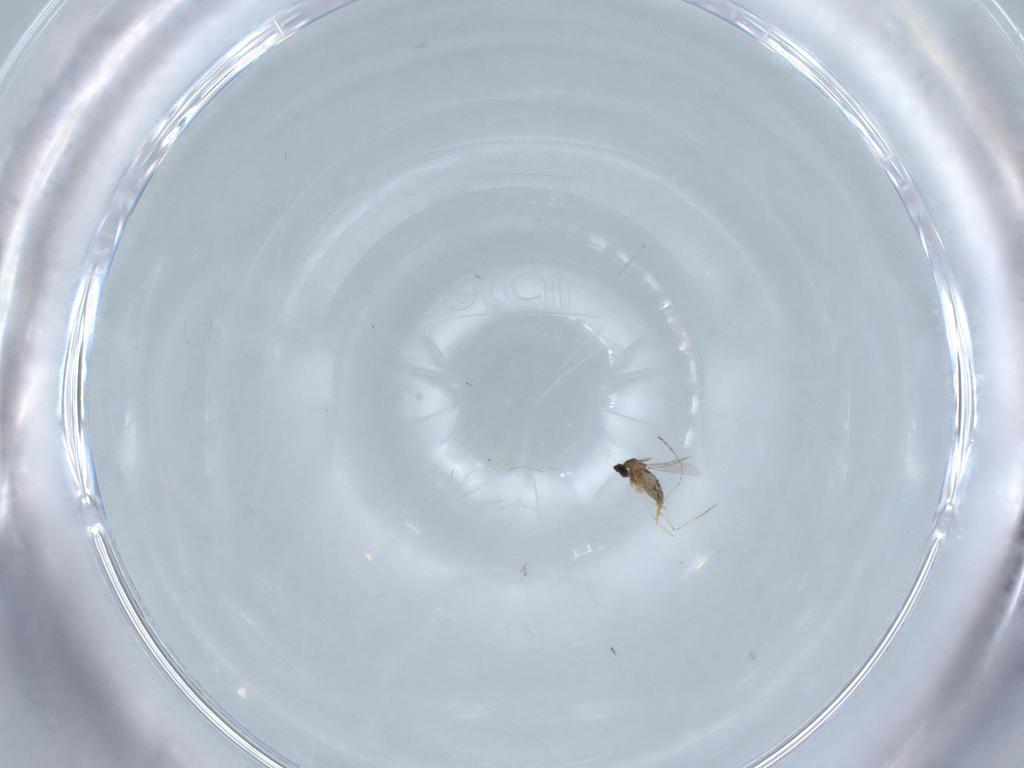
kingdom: Animalia
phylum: Arthropoda
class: Insecta
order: Diptera
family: Cecidomyiidae
